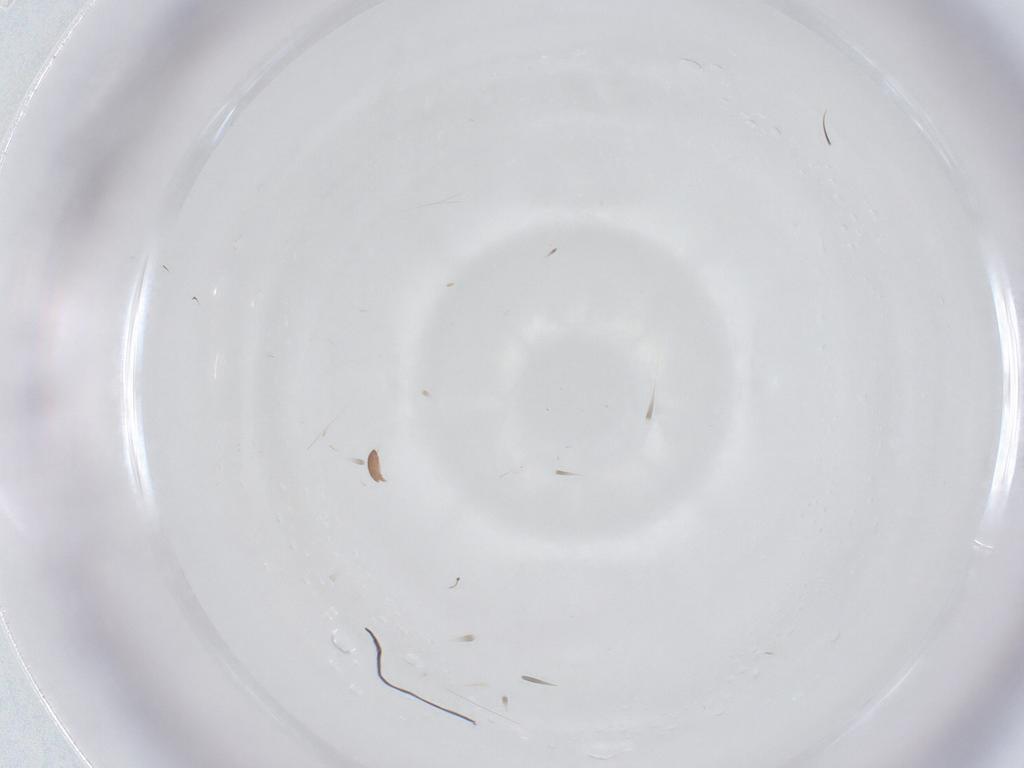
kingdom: Animalia
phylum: Arthropoda
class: Insecta
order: Diptera
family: Chironomidae
